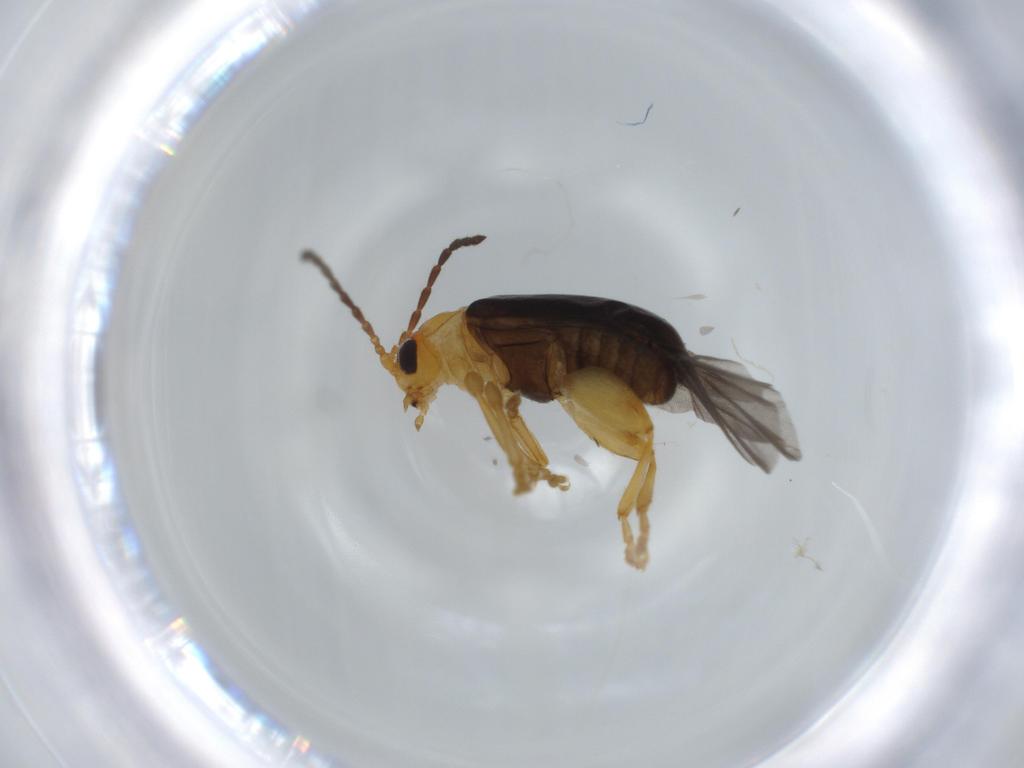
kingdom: Animalia
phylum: Arthropoda
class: Insecta
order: Coleoptera
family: Chrysomelidae
